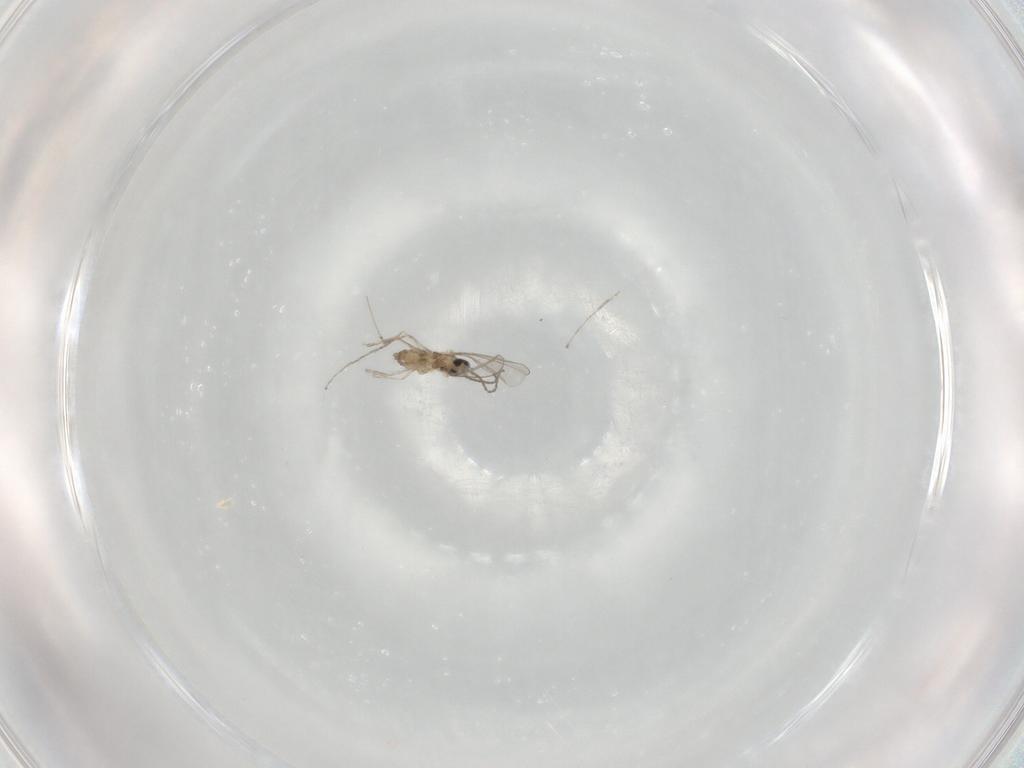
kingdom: Animalia
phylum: Arthropoda
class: Insecta
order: Diptera
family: Cecidomyiidae
